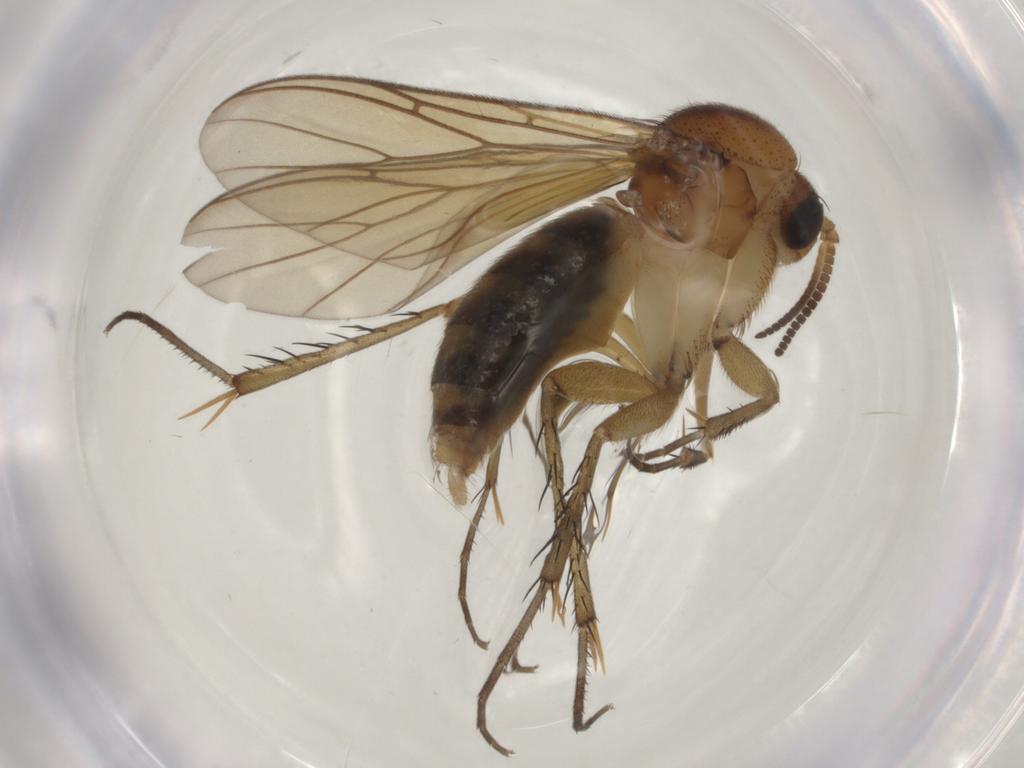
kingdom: Animalia
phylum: Arthropoda
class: Insecta
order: Diptera
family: Mycetophilidae
